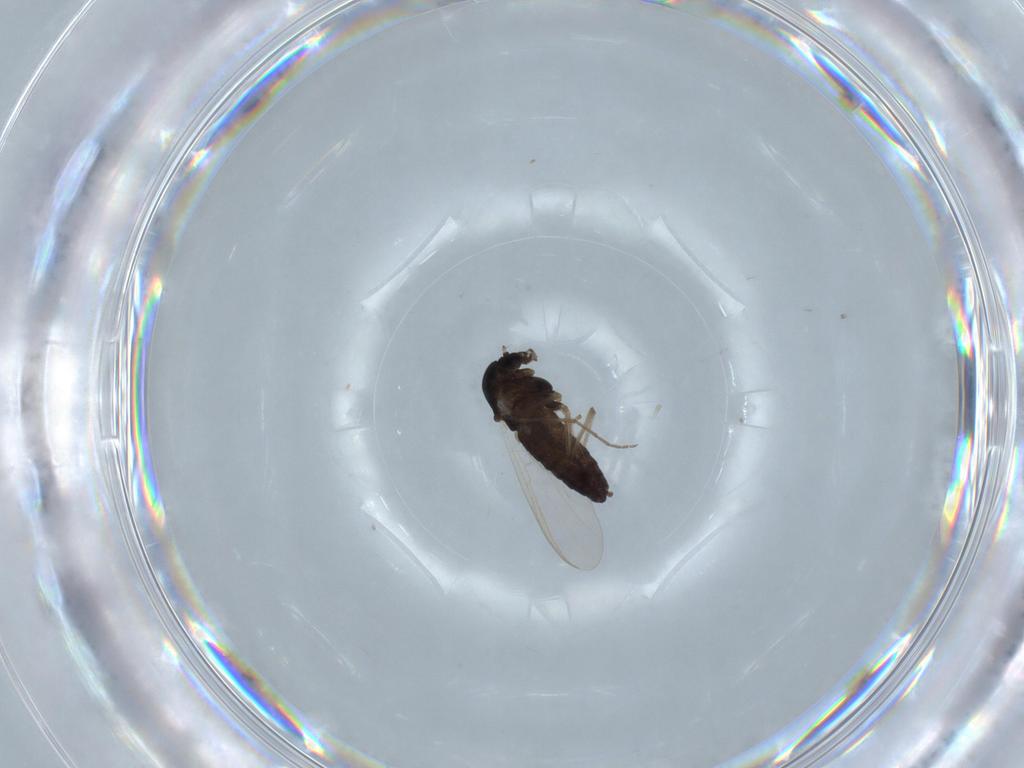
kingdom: Animalia
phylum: Arthropoda
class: Insecta
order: Diptera
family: Chironomidae
